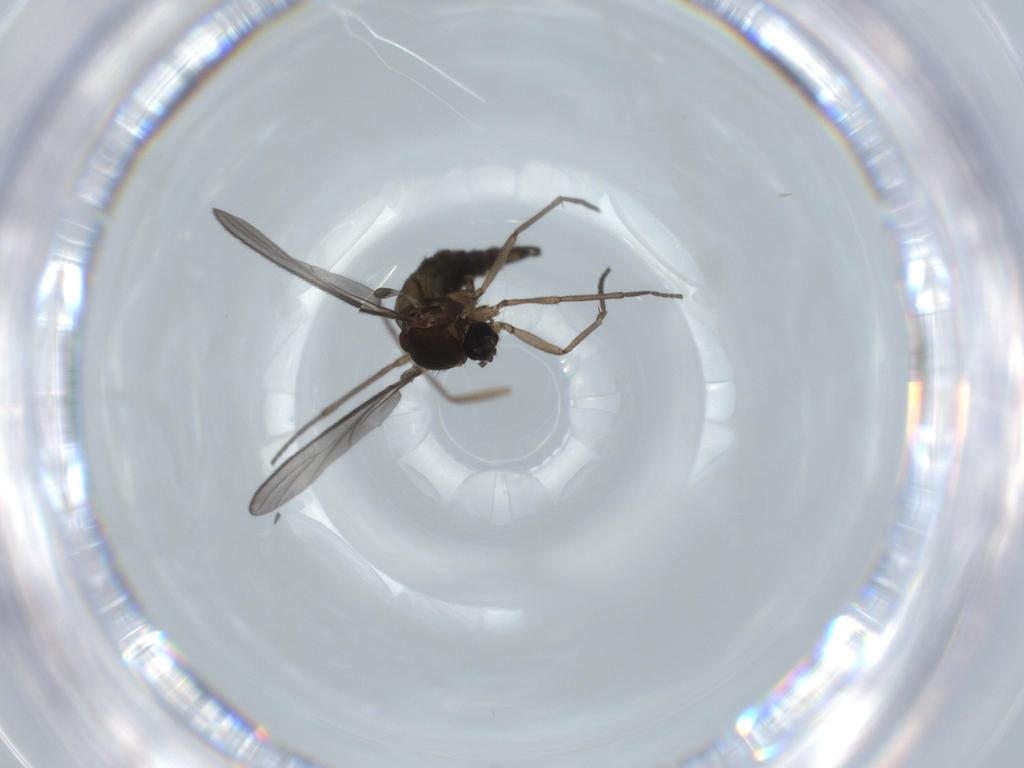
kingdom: Animalia
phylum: Arthropoda
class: Insecta
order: Diptera
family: Sciaridae
